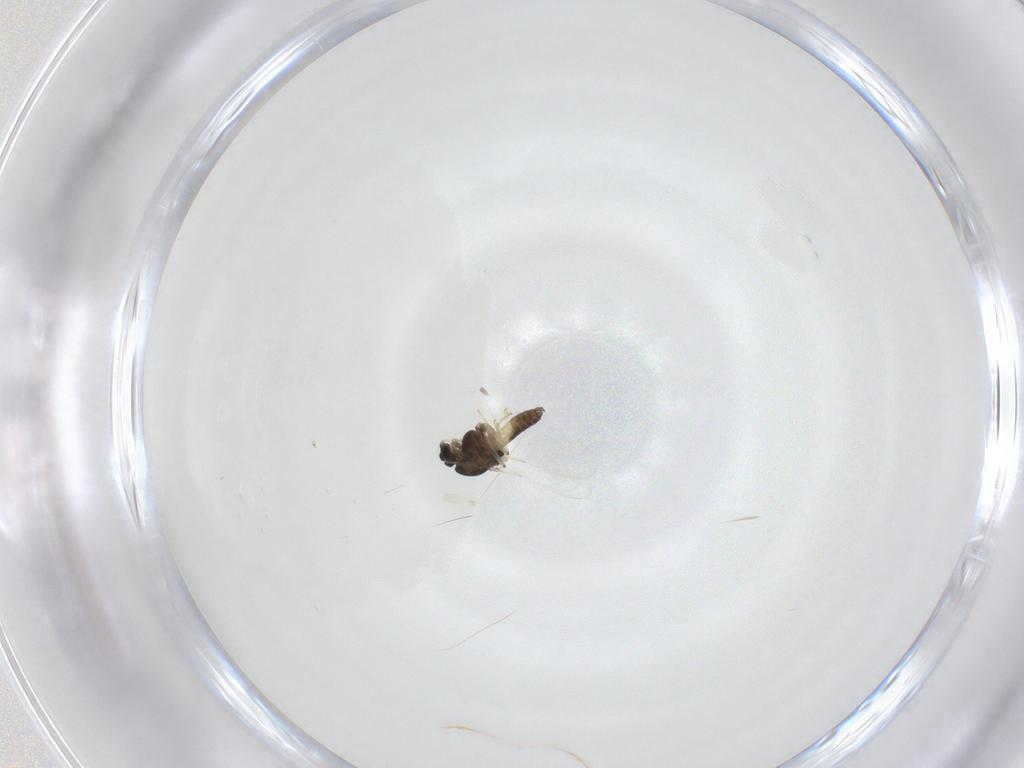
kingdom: Animalia
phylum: Arthropoda
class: Insecta
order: Diptera
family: Chironomidae
